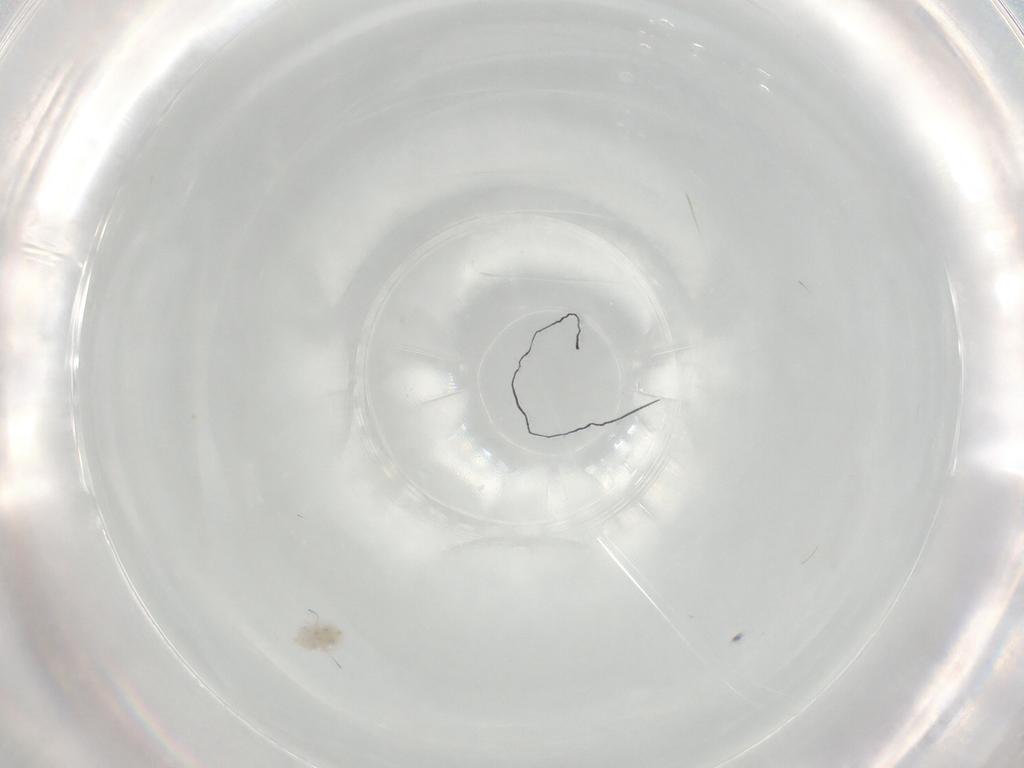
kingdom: Animalia
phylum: Arthropoda
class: Collembola
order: Symphypleona
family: Bourletiellidae
